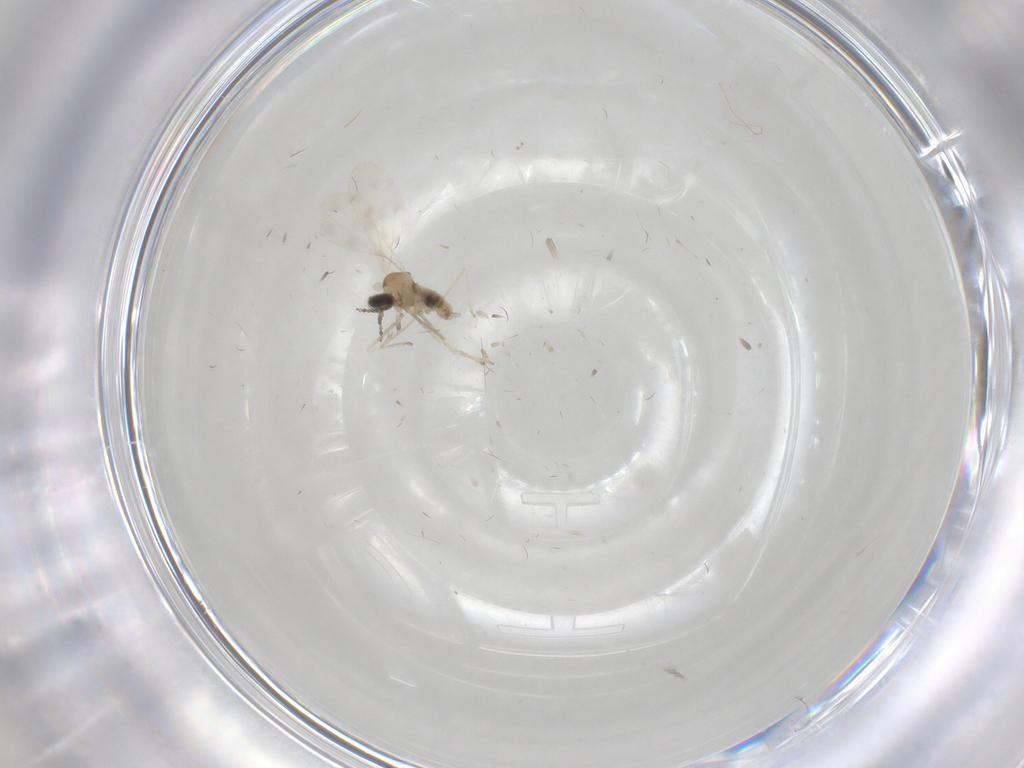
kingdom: Animalia
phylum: Arthropoda
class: Insecta
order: Diptera
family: Cecidomyiidae
